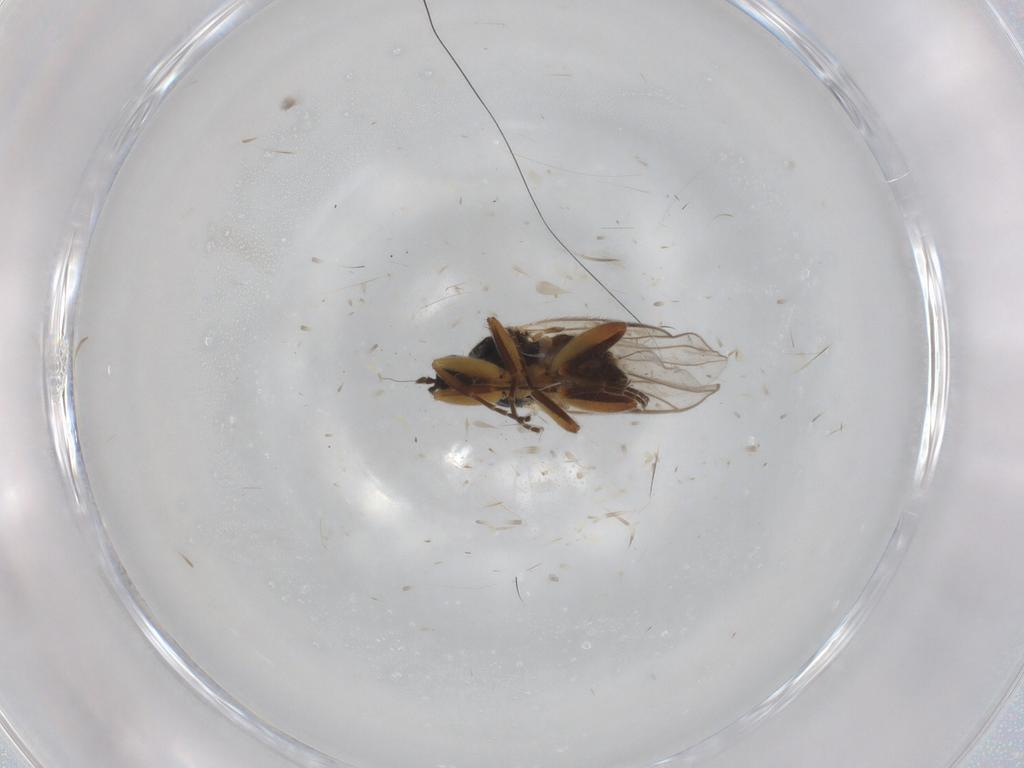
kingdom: Animalia
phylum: Arthropoda
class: Insecta
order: Diptera
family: Hybotidae
